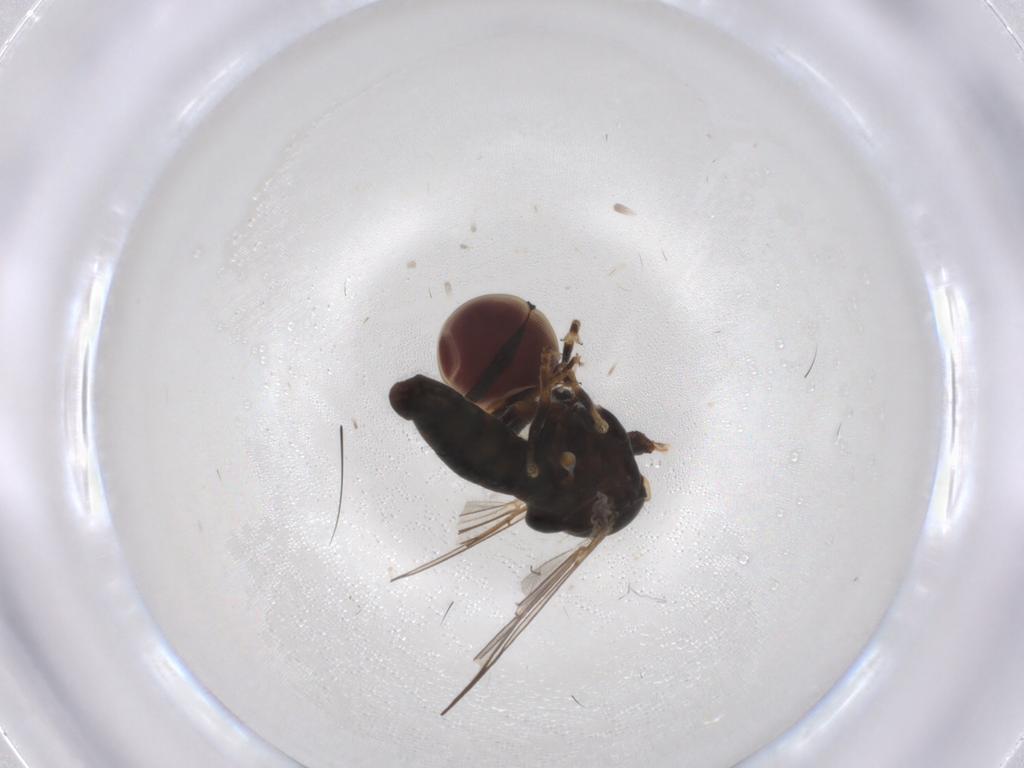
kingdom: Animalia
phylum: Arthropoda
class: Insecta
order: Diptera
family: Pipunculidae
